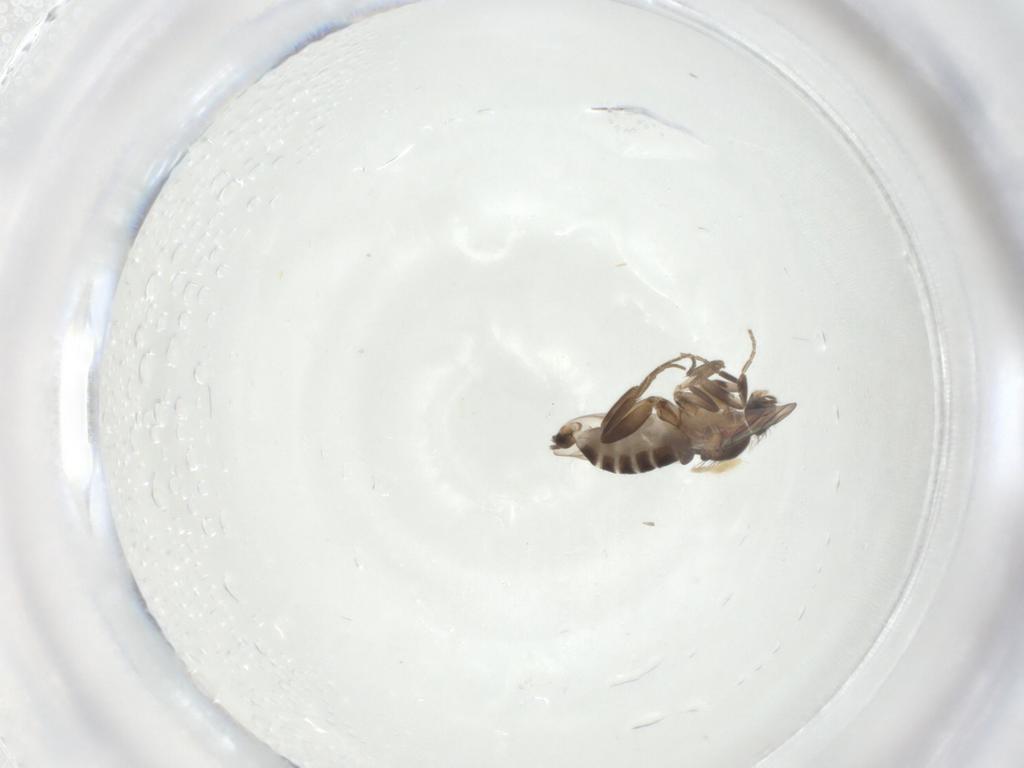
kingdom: Animalia
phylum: Arthropoda
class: Insecta
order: Diptera
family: Phoridae
